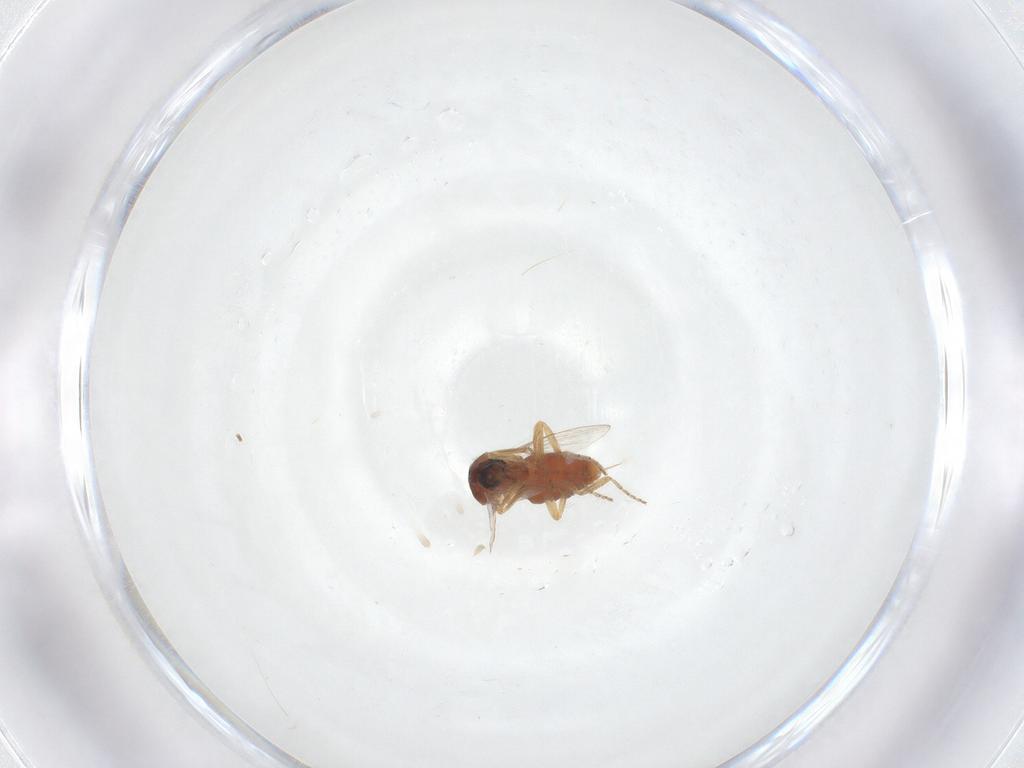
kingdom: Animalia
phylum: Arthropoda
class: Insecta
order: Diptera
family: Ceratopogonidae
